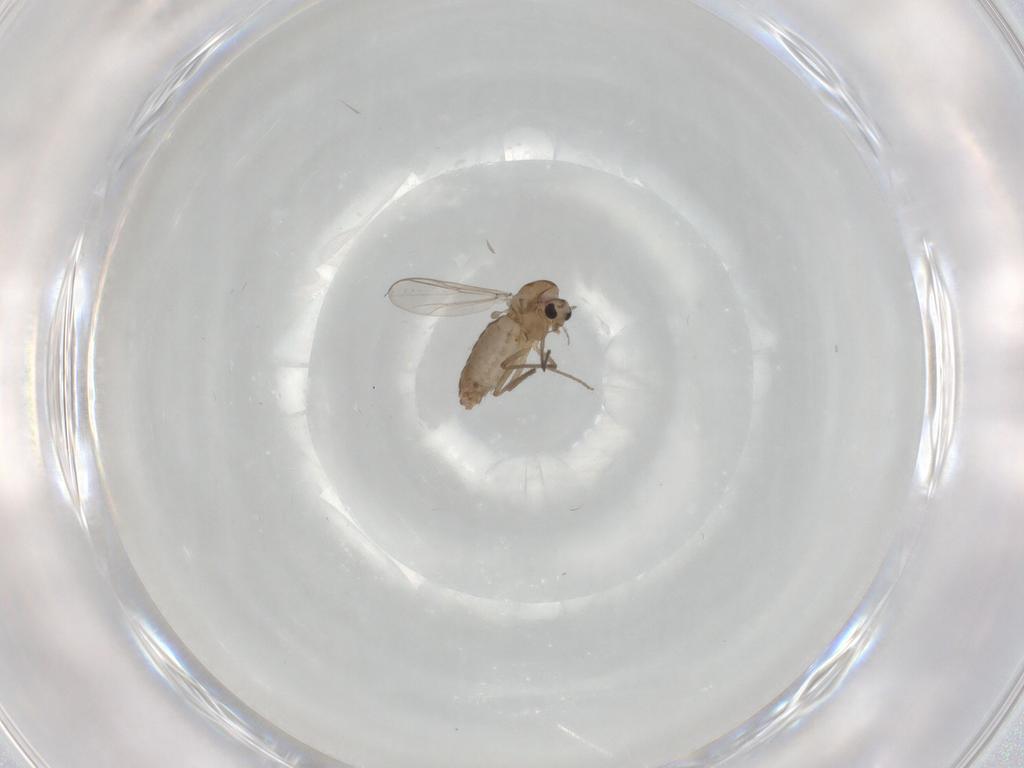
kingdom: Animalia
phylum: Arthropoda
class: Insecta
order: Diptera
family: Chironomidae
